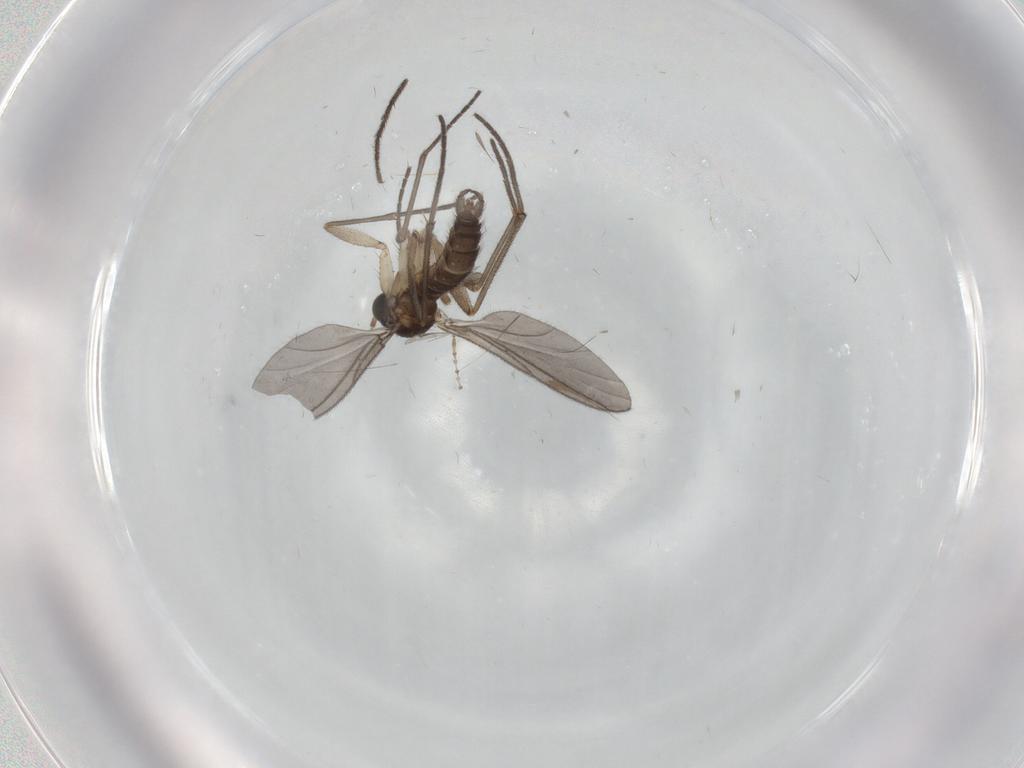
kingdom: Animalia
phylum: Arthropoda
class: Insecta
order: Diptera
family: Sciaridae
